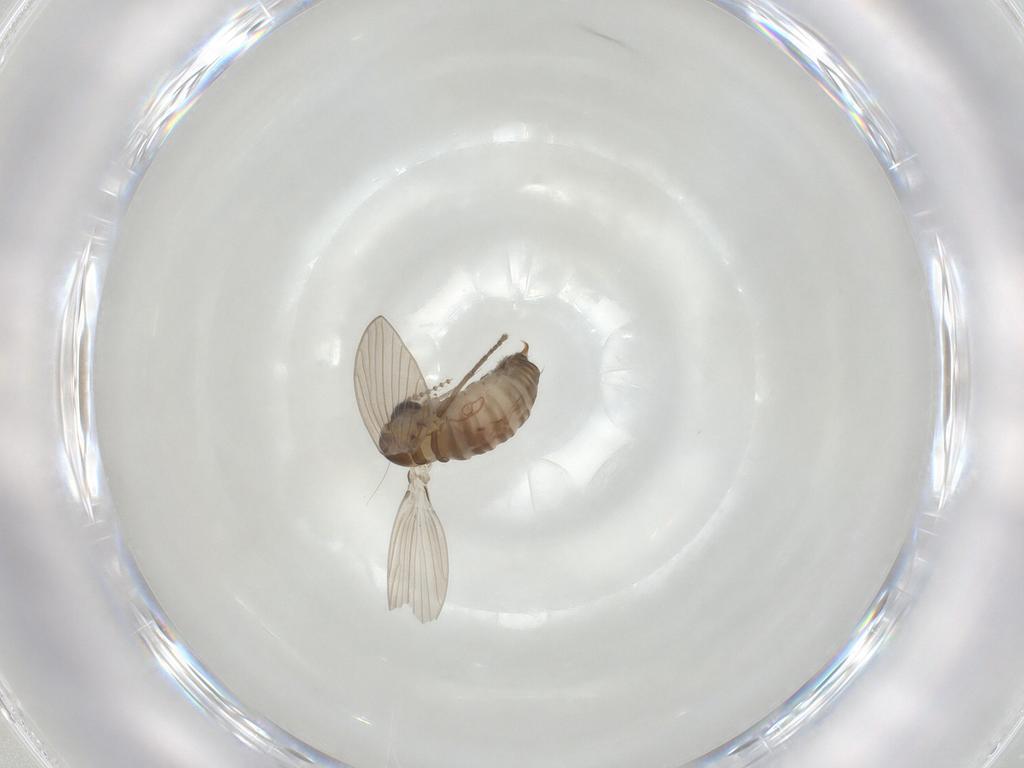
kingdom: Animalia
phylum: Arthropoda
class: Insecta
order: Diptera
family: Psychodidae
